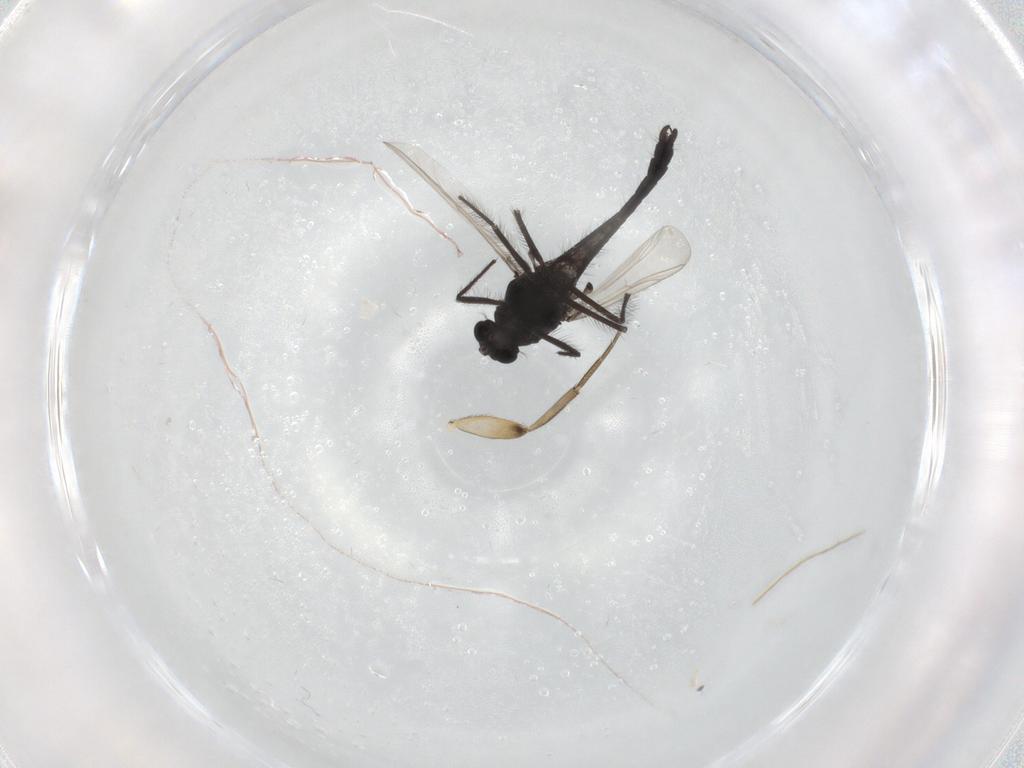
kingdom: Animalia
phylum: Arthropoda
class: Insecta
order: Diptera
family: Chironomidae
